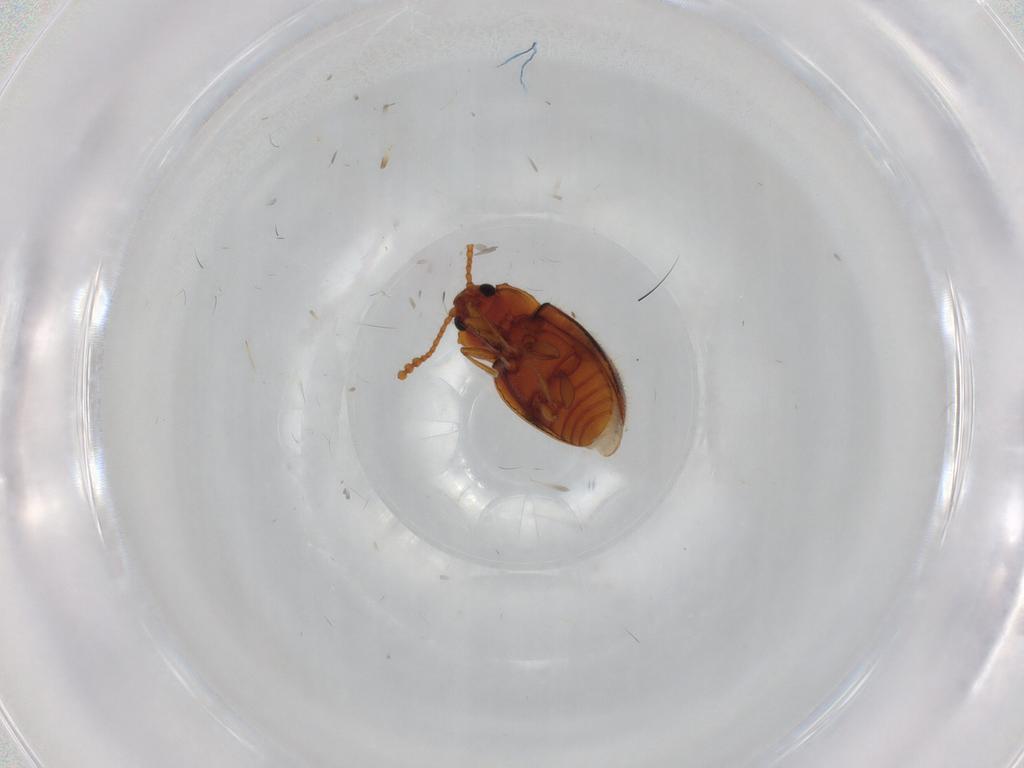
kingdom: Animalia
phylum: Arthropoda
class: Insecta
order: Coleoptera
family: Erotylidae
